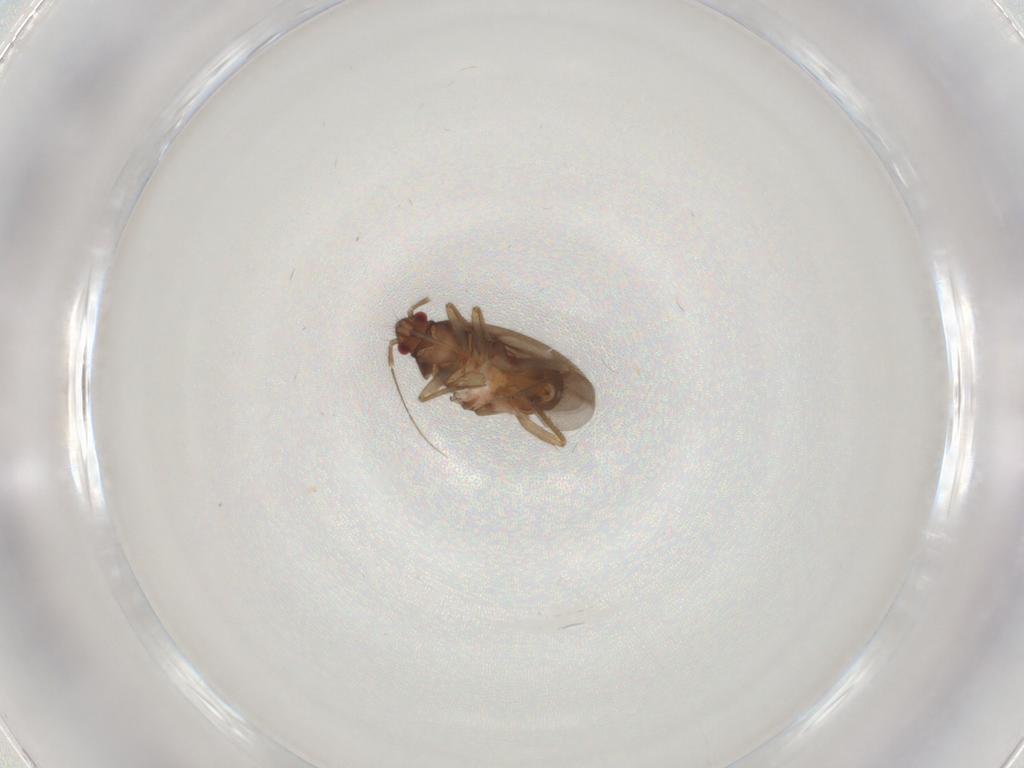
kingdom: Animalia
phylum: Arthropoda
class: Insecta
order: Hemiptera
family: Ceratocombidae
